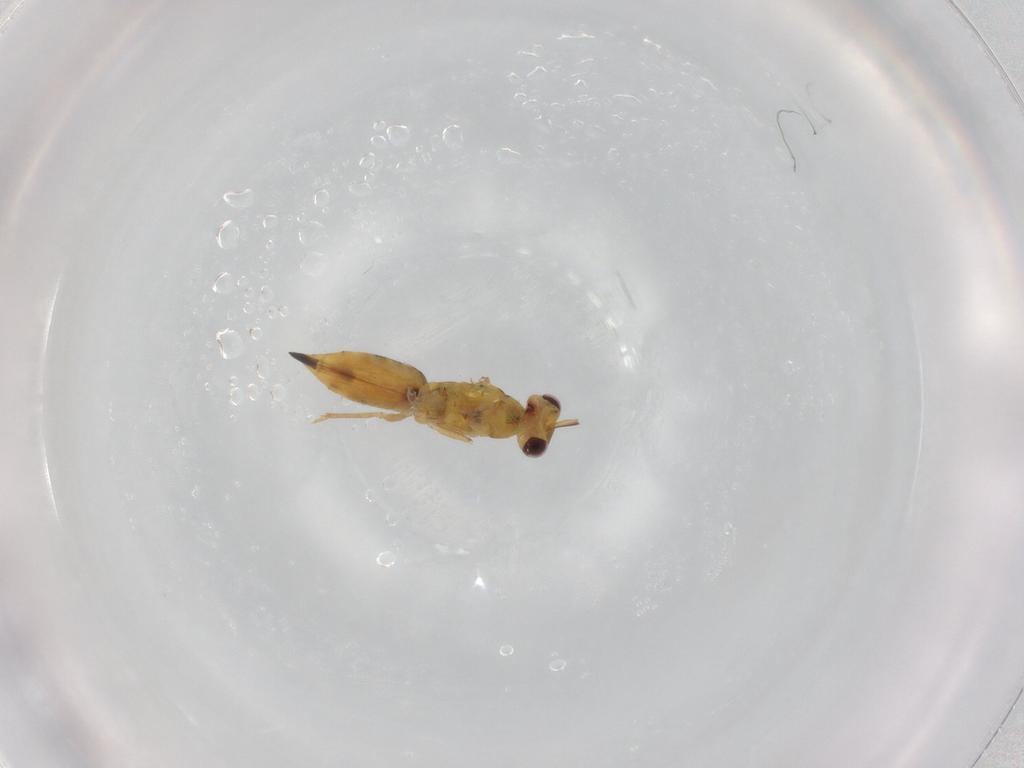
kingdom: Animalia
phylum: Arthropoda
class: Insecta
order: Hymenoptera
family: Eulophidae
